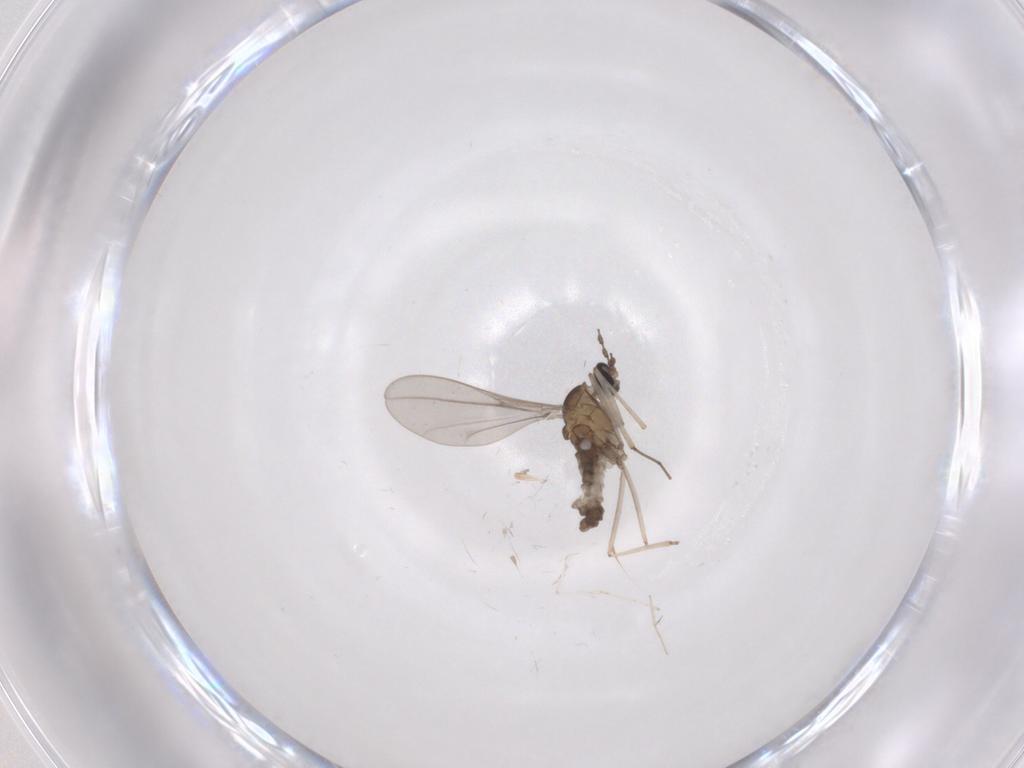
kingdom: Animalia
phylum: Arthropoda
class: Insecta
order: Diptera
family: Cecidomyiidae
